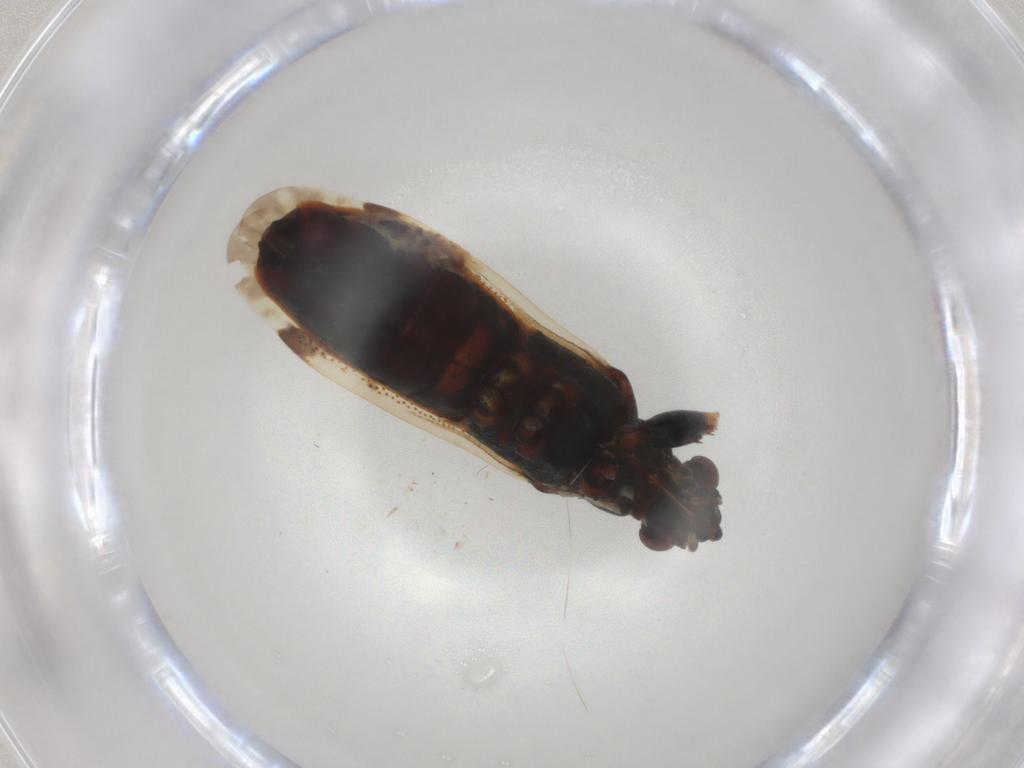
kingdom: Animalia
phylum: Arthropoda
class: Insecta
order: Hemiptera
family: Rhyparochromidae
